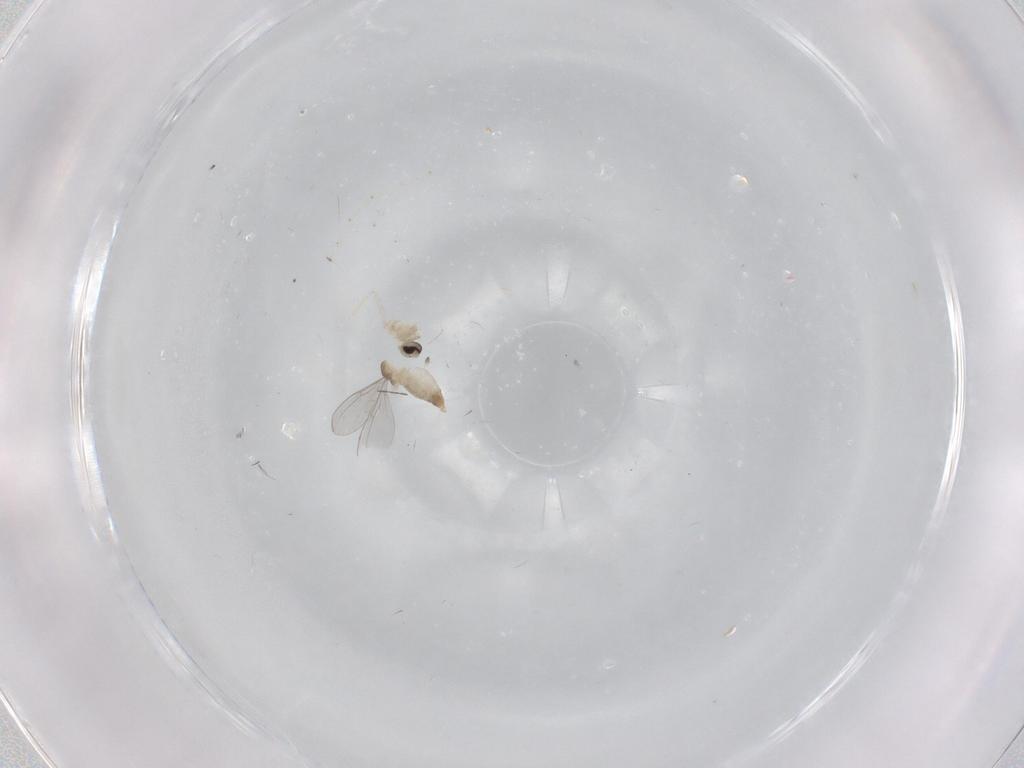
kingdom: Animalia
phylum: Arthropoda
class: Insecta
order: Diptera
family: Cecidomyiidae
